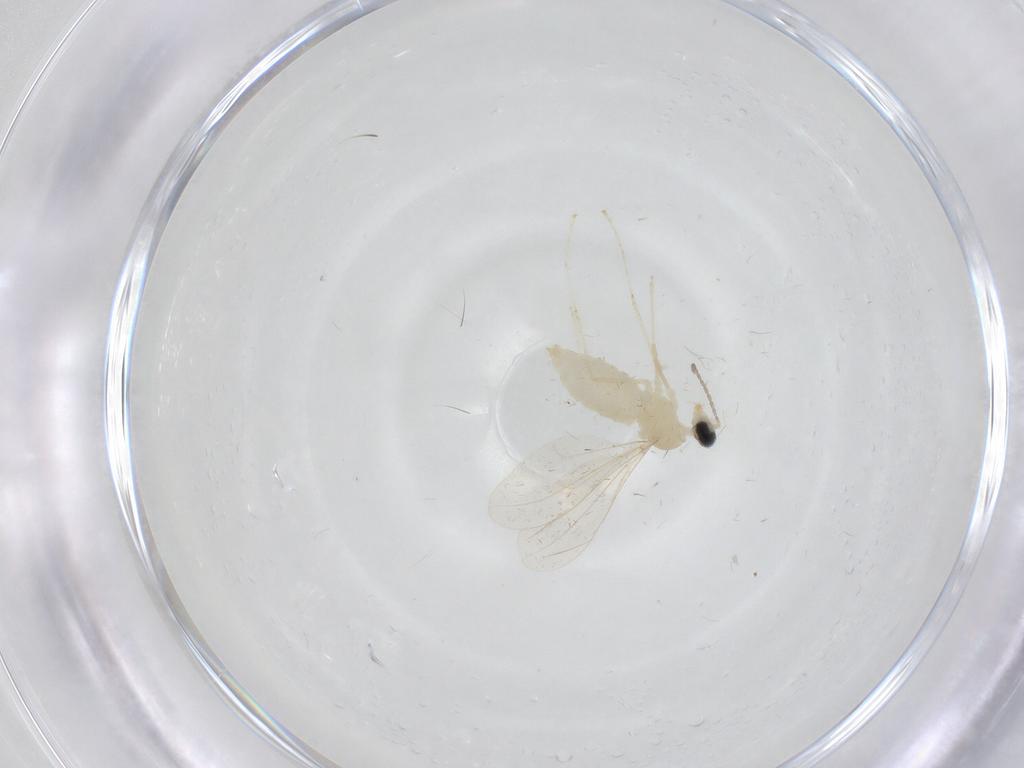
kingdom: Animalia
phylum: Arthropoda
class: Insecta
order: Diptera
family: Cecidomyiidae
